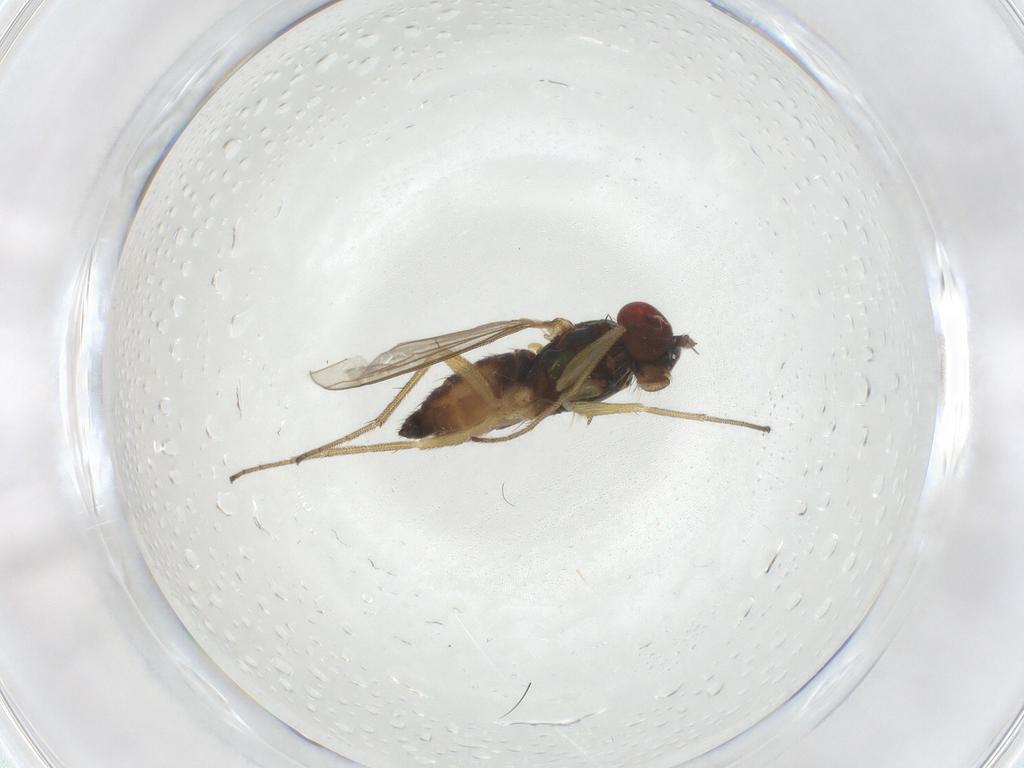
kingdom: Animalia
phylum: Arthropoda
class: Insecta
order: Diptera
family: Dolichopodidae
